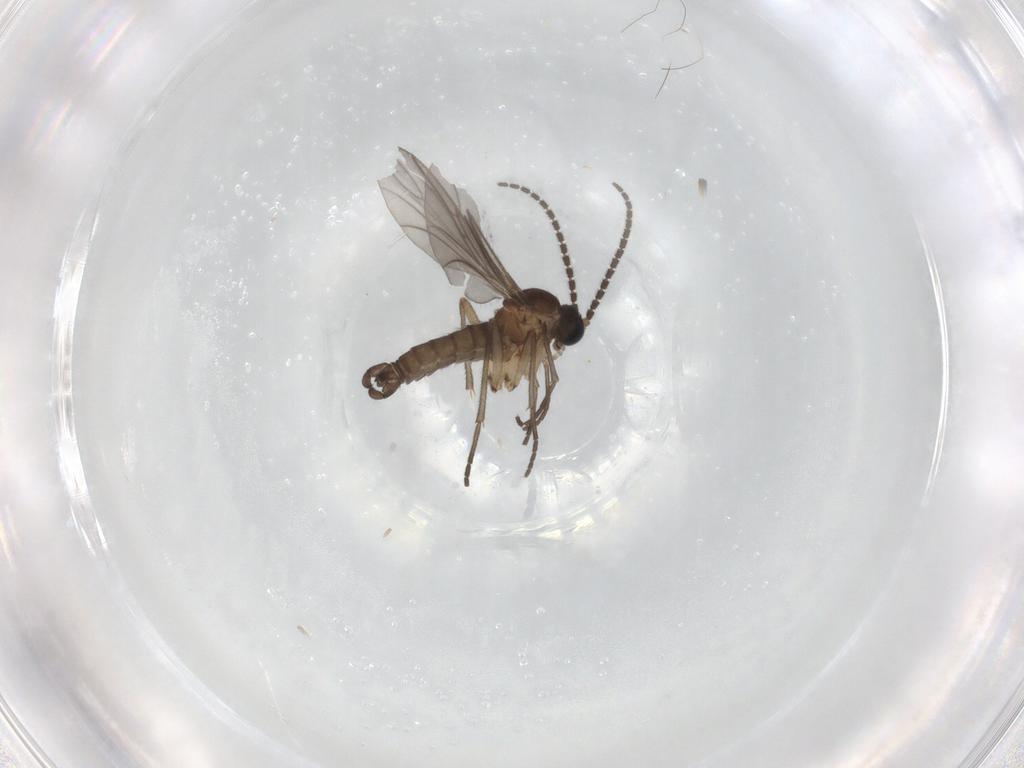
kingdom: Animalia
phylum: Arthropoda
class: Insecta
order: Diptera
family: Sciaridae
